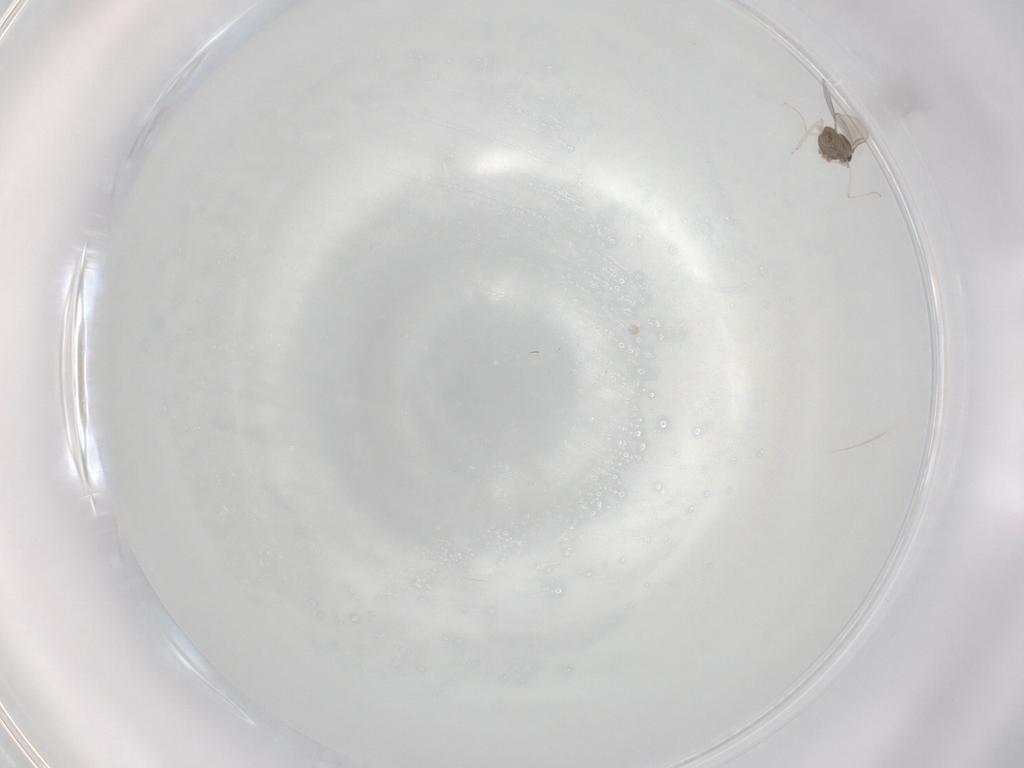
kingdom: Animalia
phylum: Arthropoda
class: Insecta
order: Diptera
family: Cecidomyiidae
